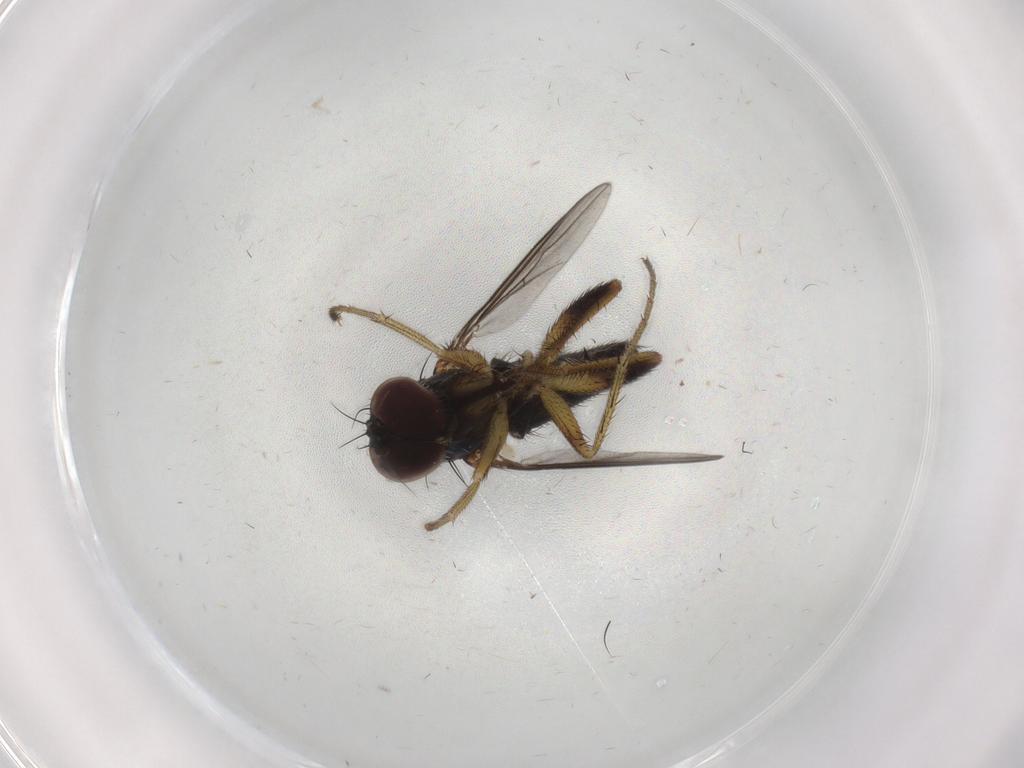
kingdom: Animalia
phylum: Arthropoda
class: Insecta
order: Diptera
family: Dolichopodidae
